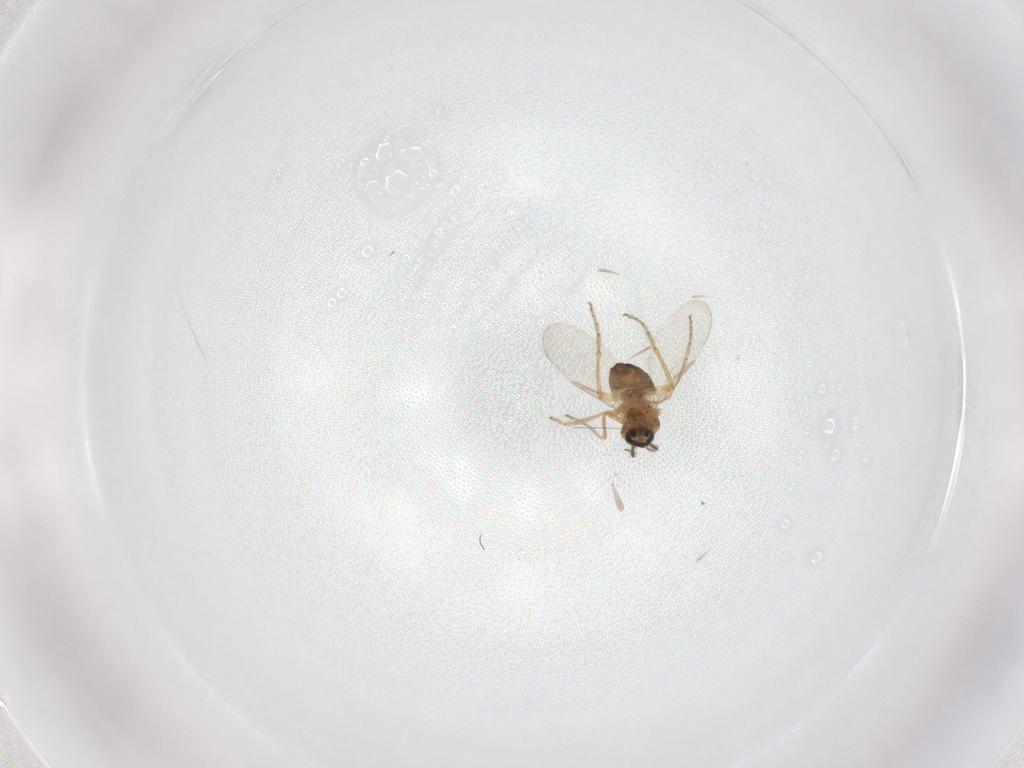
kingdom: Animalia
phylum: Arthropoda
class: Insecta
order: Diptera
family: Ceratopogonidae
